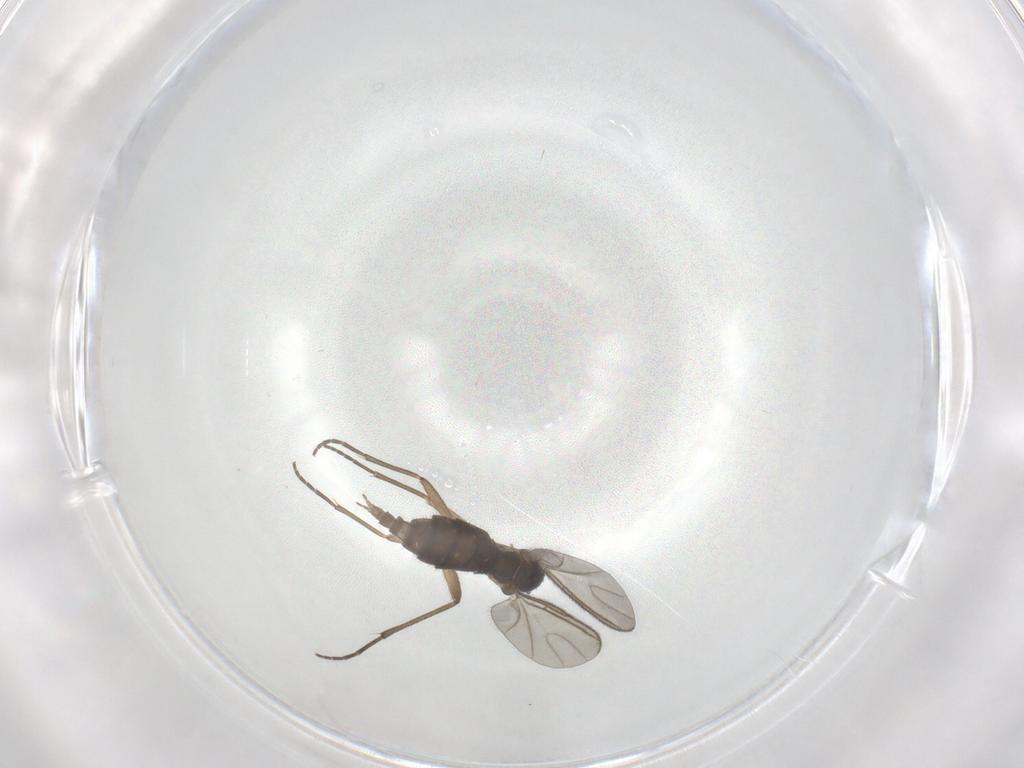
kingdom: Animalia
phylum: Arthropoda
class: Insecta
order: Diptera
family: Cecidomyiidae
